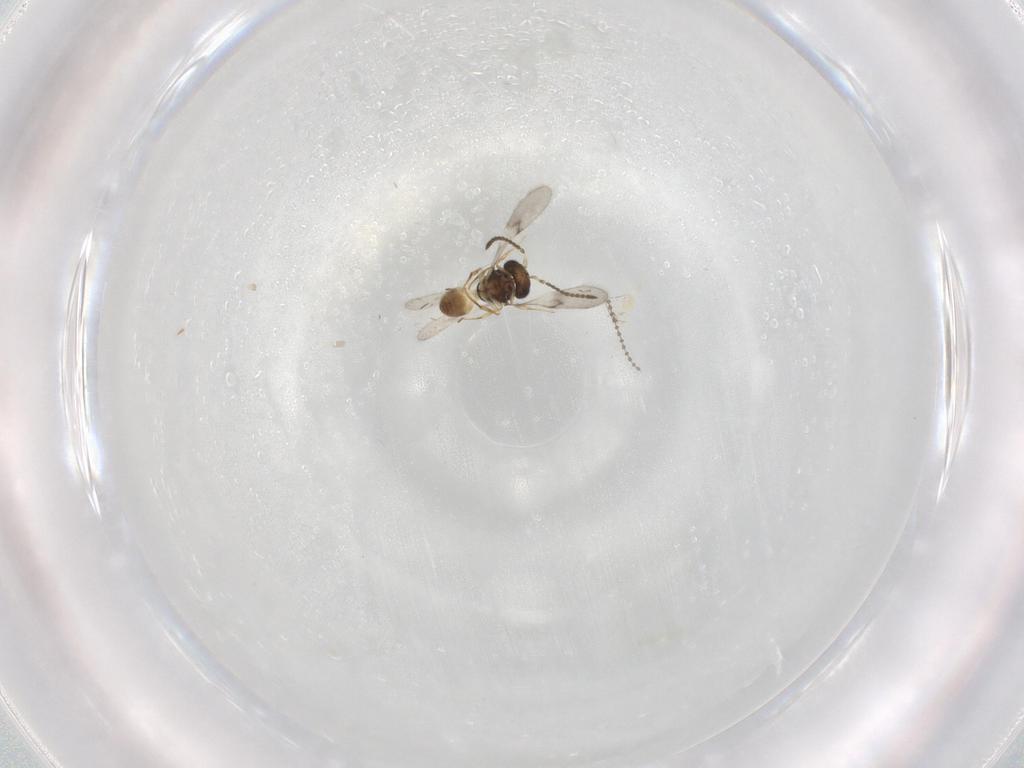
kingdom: Animalia
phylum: Arthropoda
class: Insecta
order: Hymenoptera
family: Scelionidae
